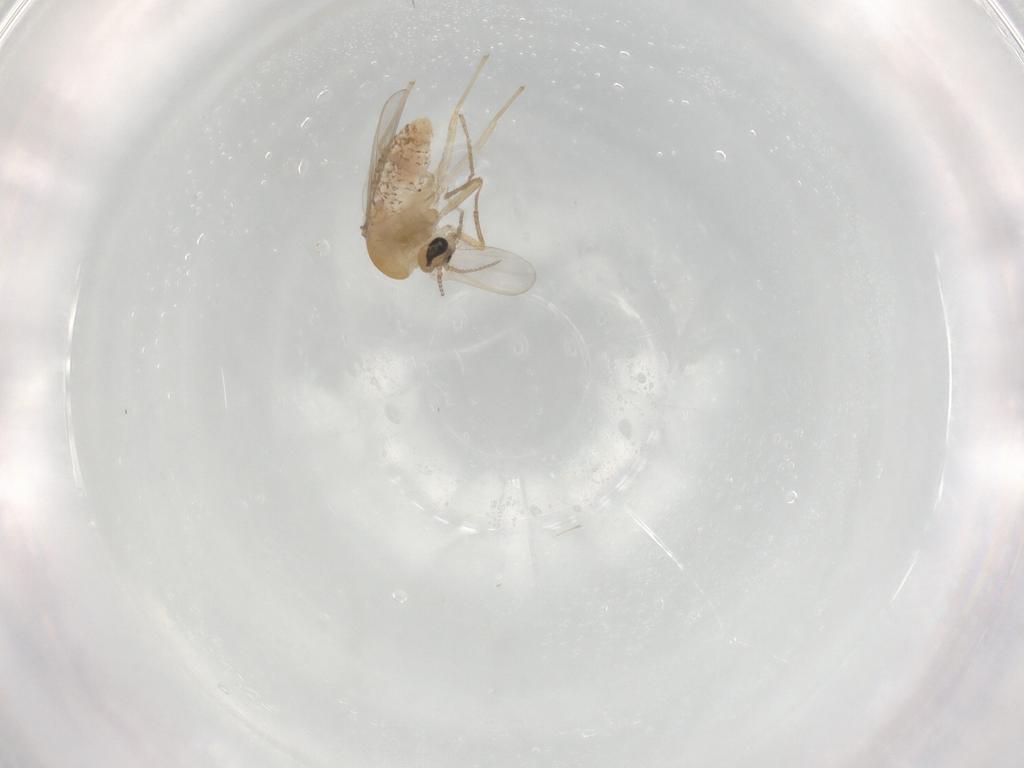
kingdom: Animalia
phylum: Arthropoda
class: Insecta
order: Diptera
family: Chironomidae
